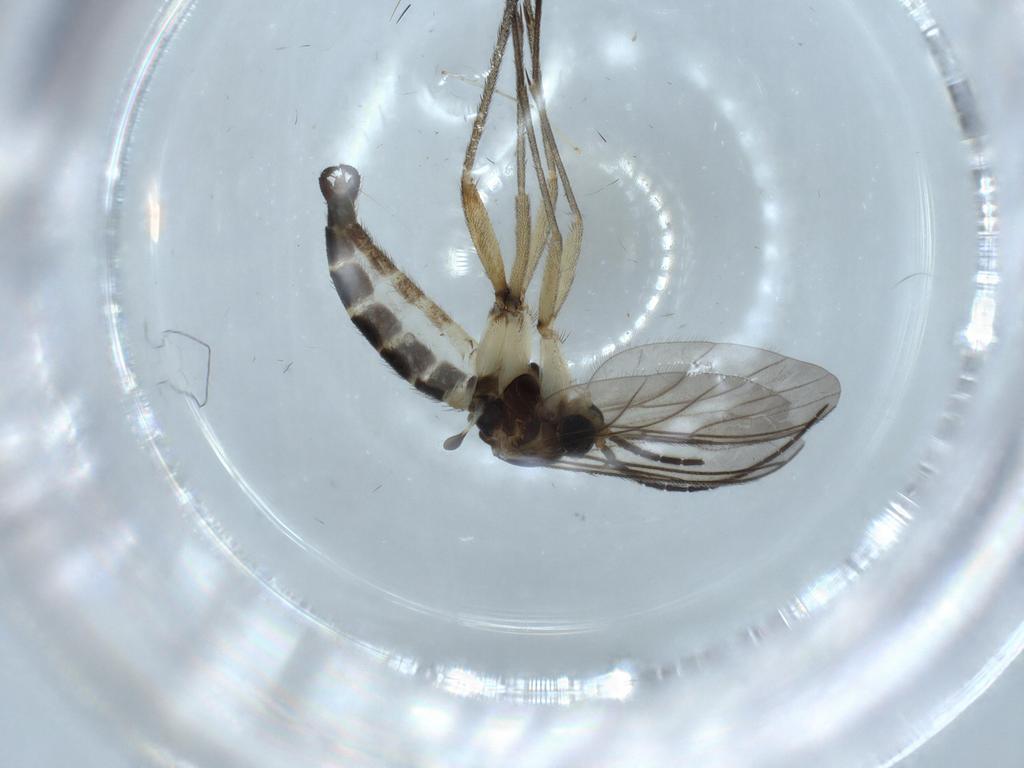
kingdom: Animalia
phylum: Arthropoda
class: Insecta
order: Diptera
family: Sciaridae
